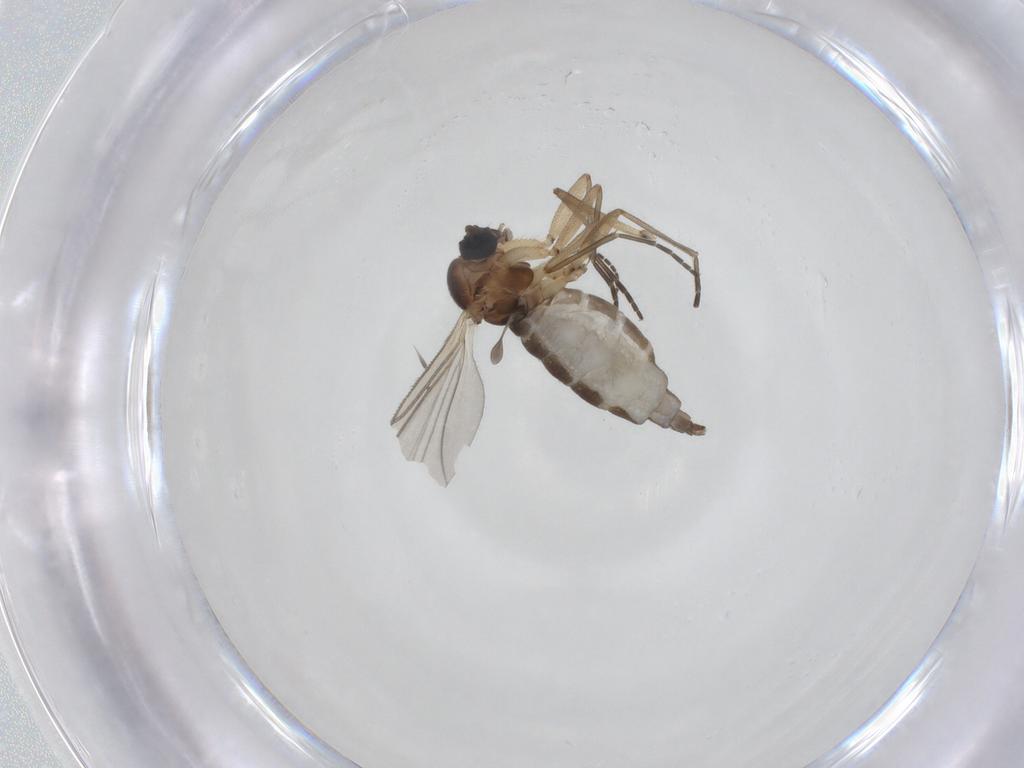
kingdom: Animalia
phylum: Arthropoda
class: Insecta
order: Diptera
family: Sciaridae
